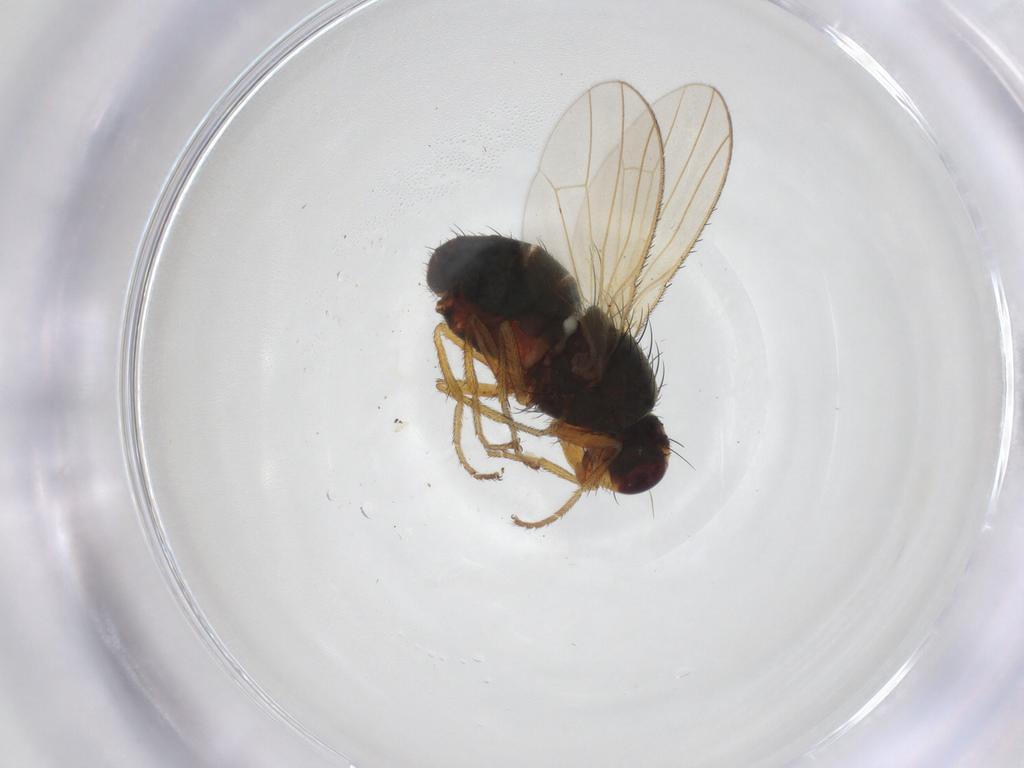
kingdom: Animalia
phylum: Arthropoda
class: Insecta
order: Diptera
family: Heleomyzidae
